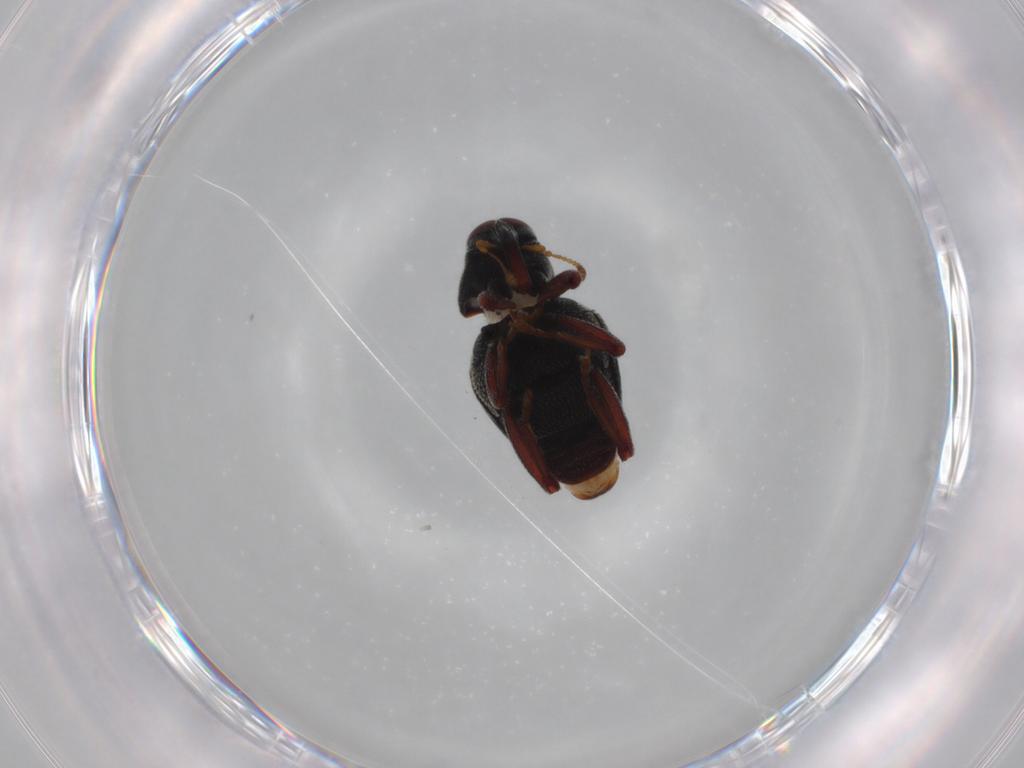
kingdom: Animalia
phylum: Arthropoda
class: Insecta
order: Coleoptera
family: Curculionidae
